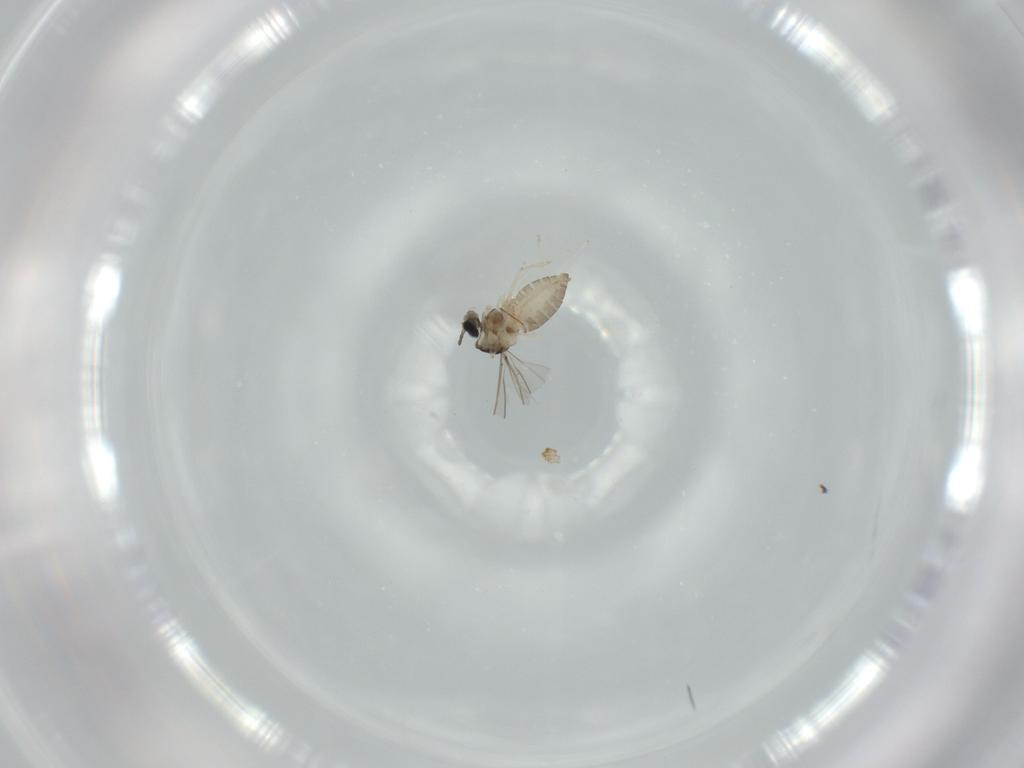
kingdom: Animalia
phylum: Arthropoda
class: Insecta
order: Diptera
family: Cecidomyiidae
